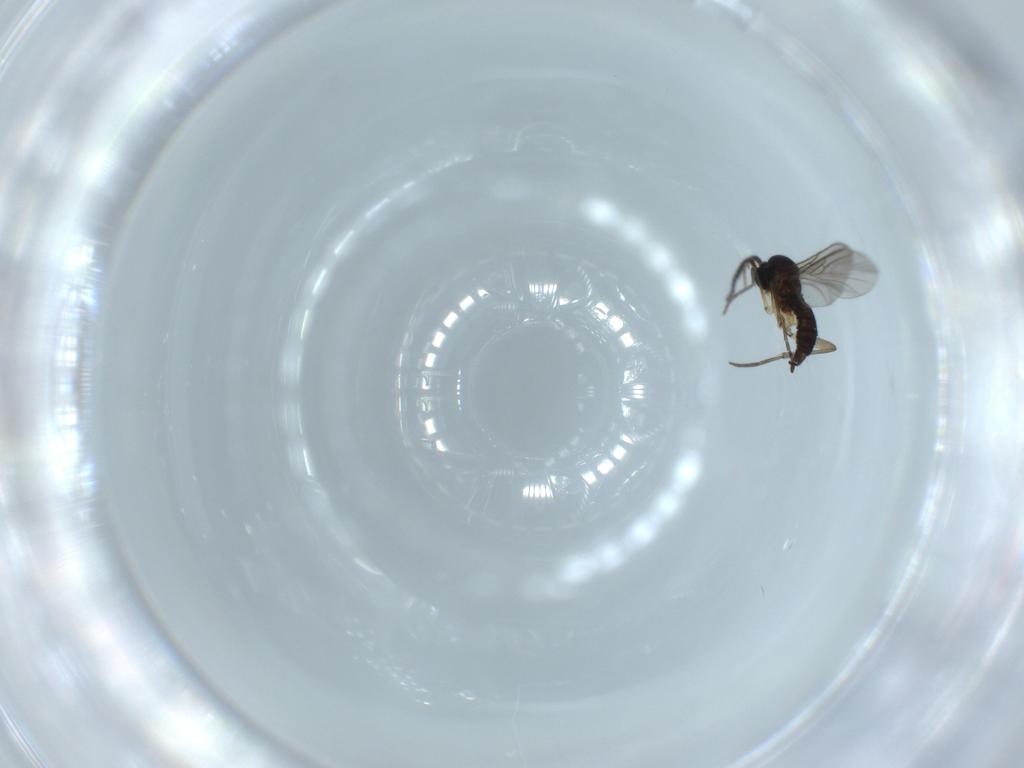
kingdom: Animalia
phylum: Arthropoda
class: Insecta
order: Diptera
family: Sciaridae
